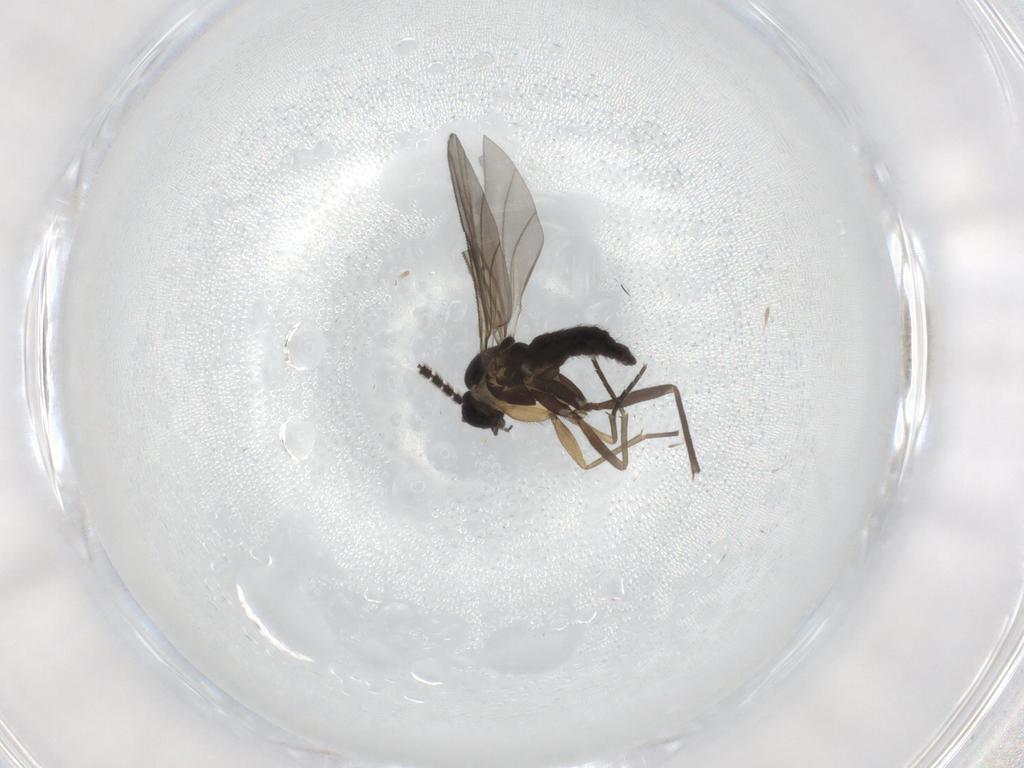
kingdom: Animalia
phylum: Arthropoda
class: Insecta
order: Diptera
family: Sciaridae
